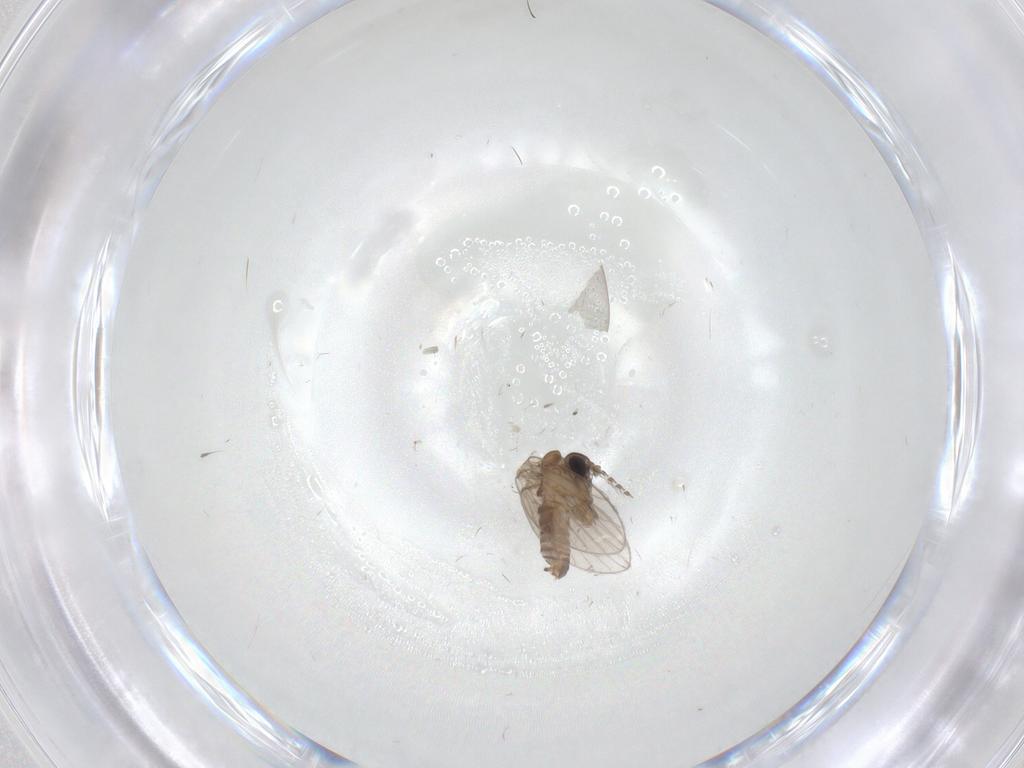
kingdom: Animalia
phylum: Arthropoda
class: Insecta
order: Diptera
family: Psychodidae
